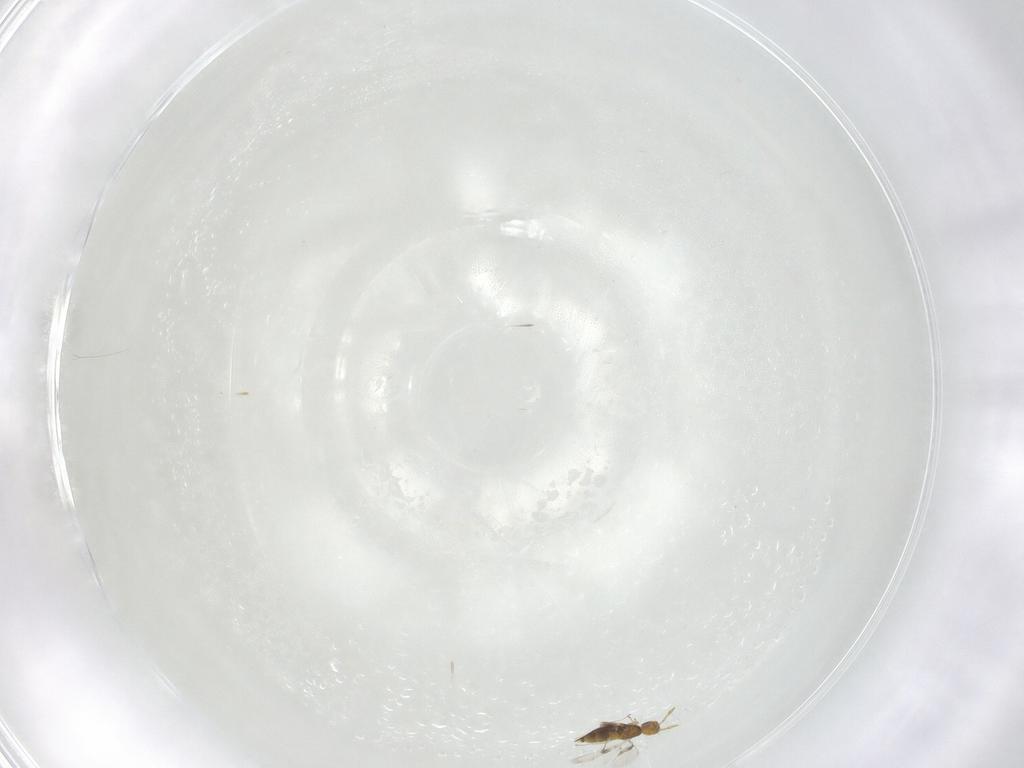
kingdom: Animalia
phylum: Arthropoda
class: Insecta
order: Hymenoptera
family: Trichogrammatidae
